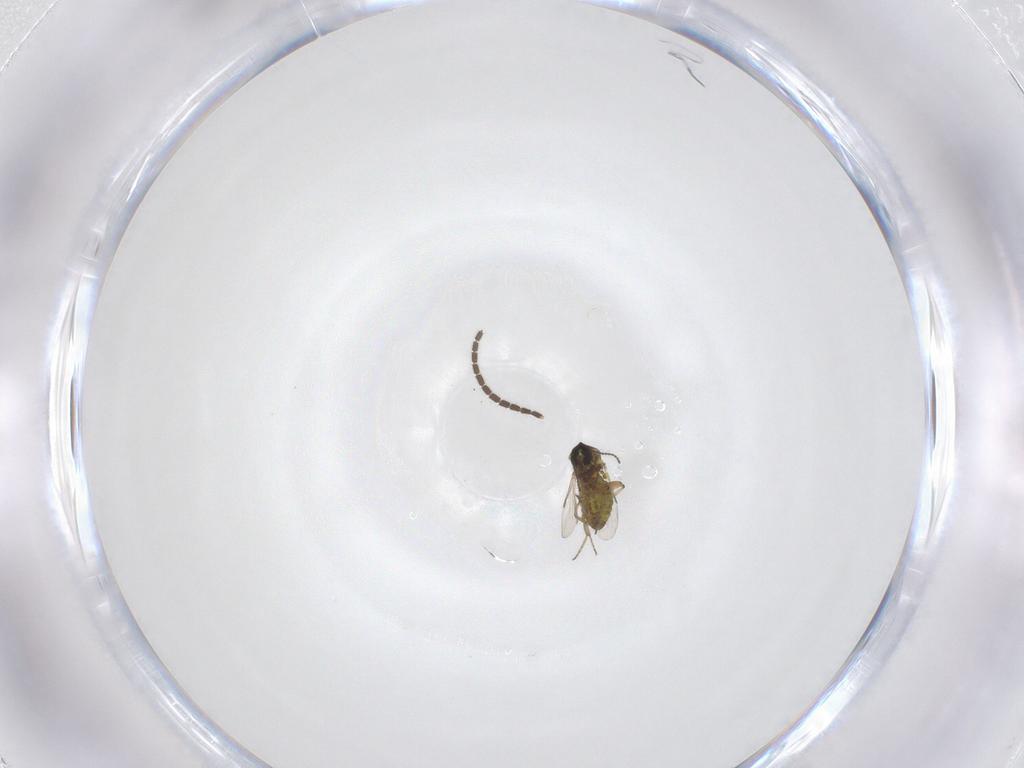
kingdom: Animalia
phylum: Arthropoda
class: Insecta
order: Diptera
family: Ceratopogonidae
